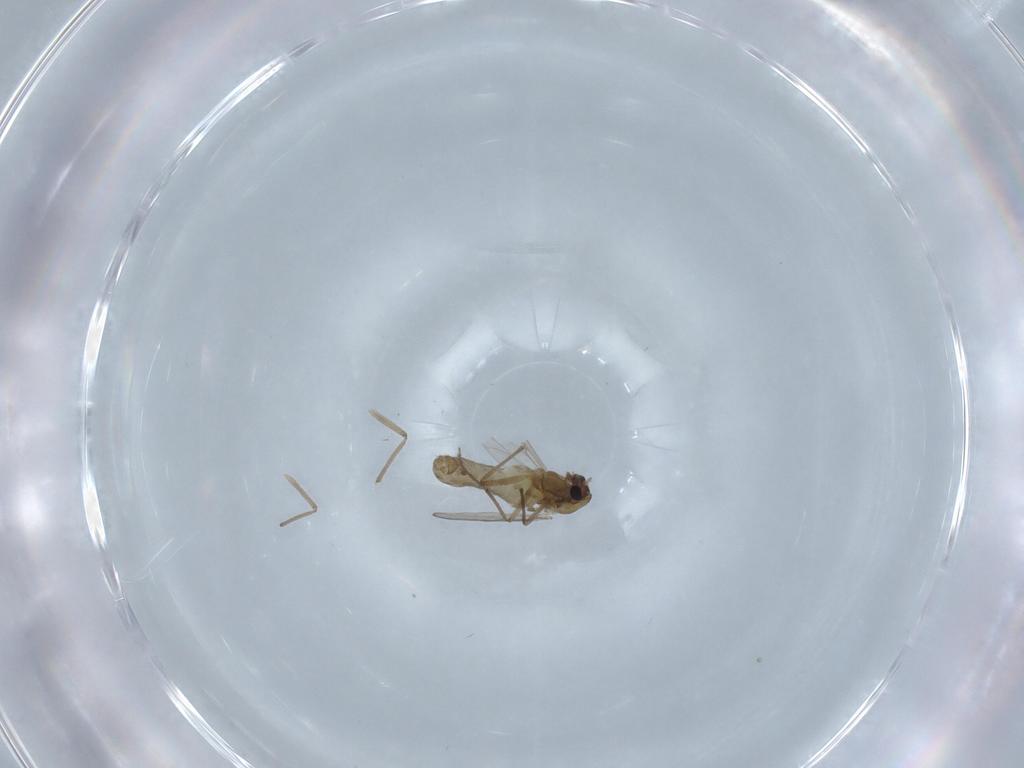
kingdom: Animalia
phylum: Arthropoda
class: Insecta
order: Diptera
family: Chironomidae
